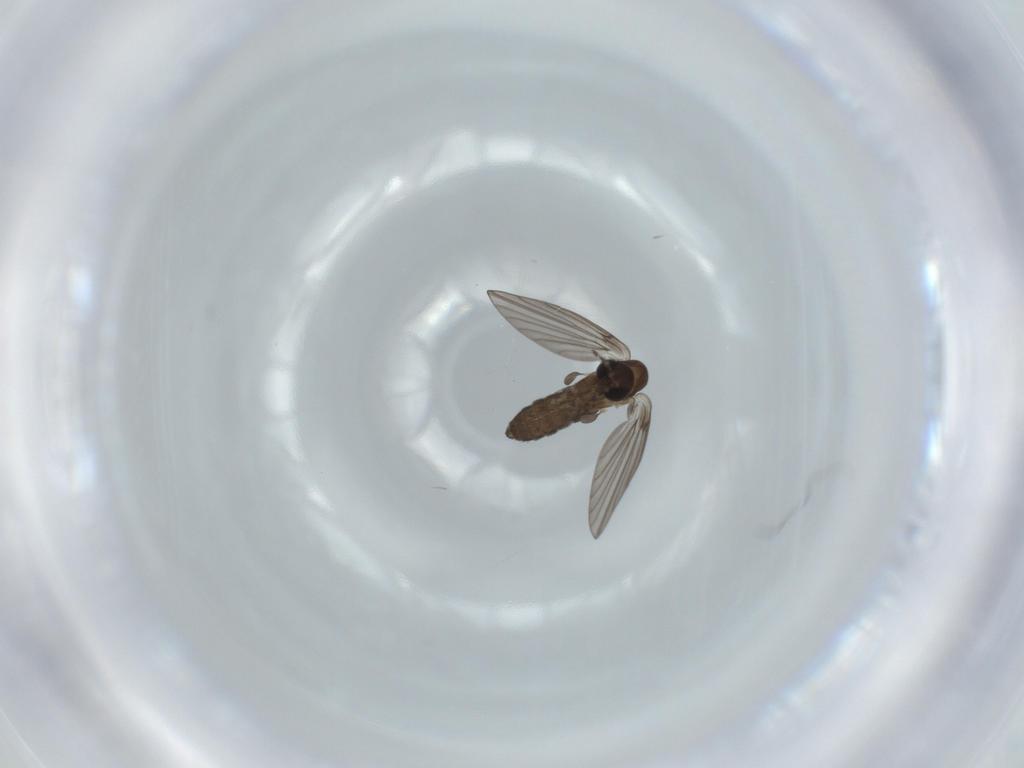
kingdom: Animalia
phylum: Arthropoda
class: Insecta
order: Diptera
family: Psychodidae
